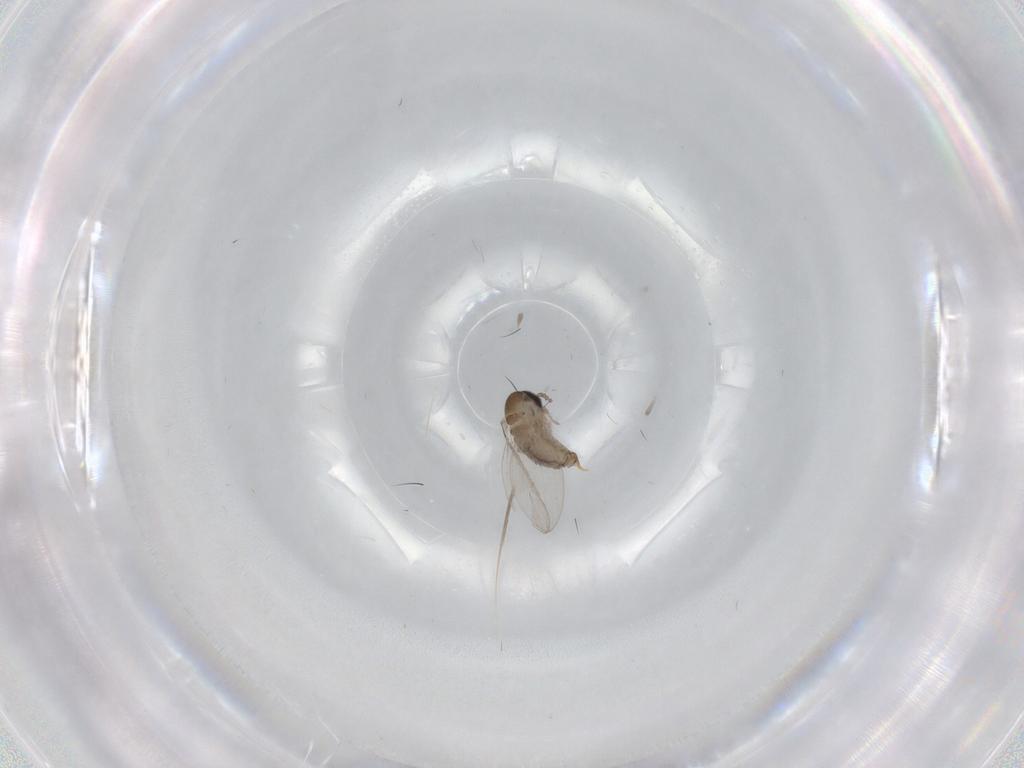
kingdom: Animalia
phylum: Arthropoda
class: Insecta
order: Diptera
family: Psychodidae
